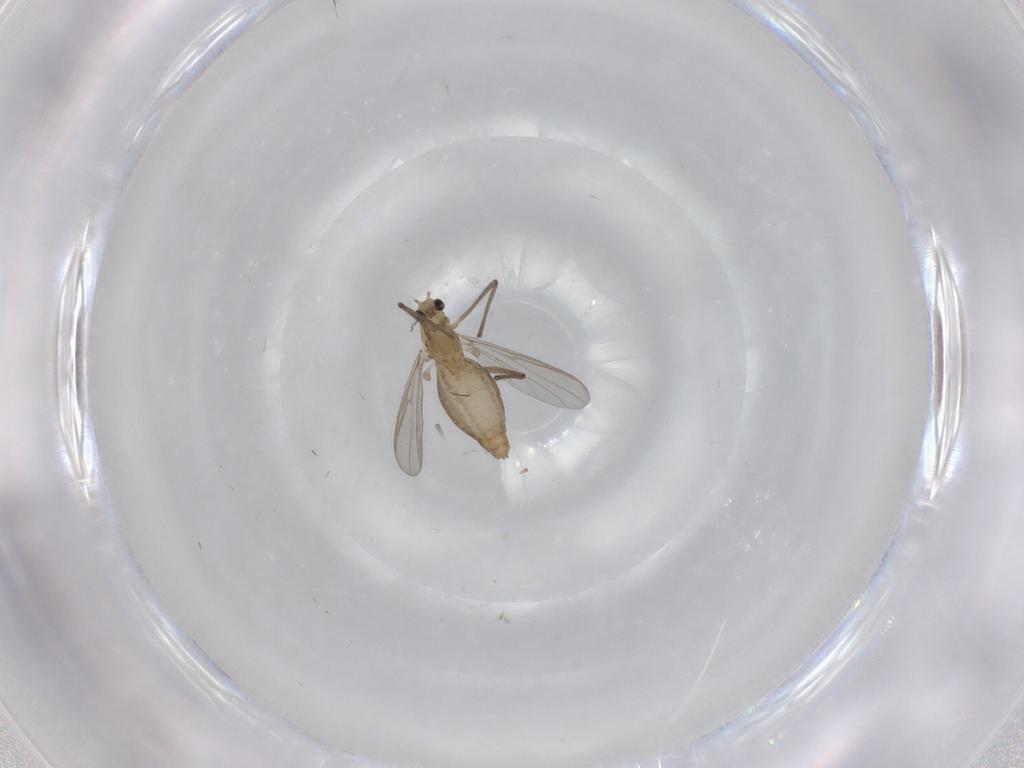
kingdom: Animalia
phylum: Arthropoda
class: Insecta
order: Diptera
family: Chironomidae
